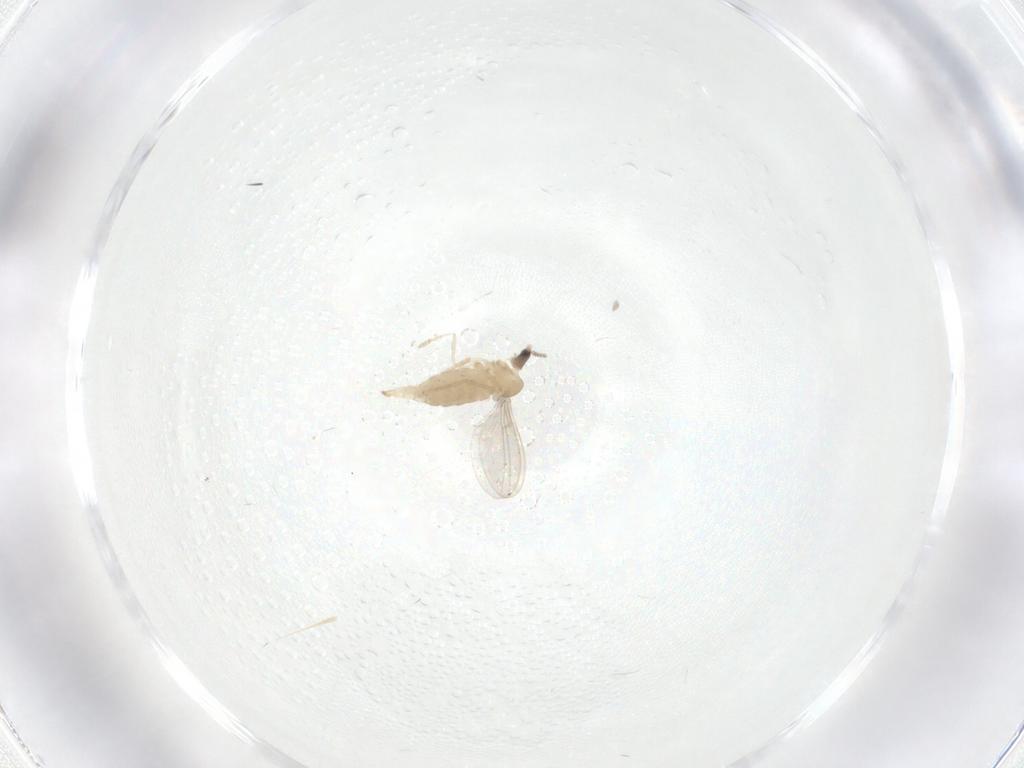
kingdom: Animalia
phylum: Arthropoda
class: Insecta
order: Diptera
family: Cecidomyiidae
